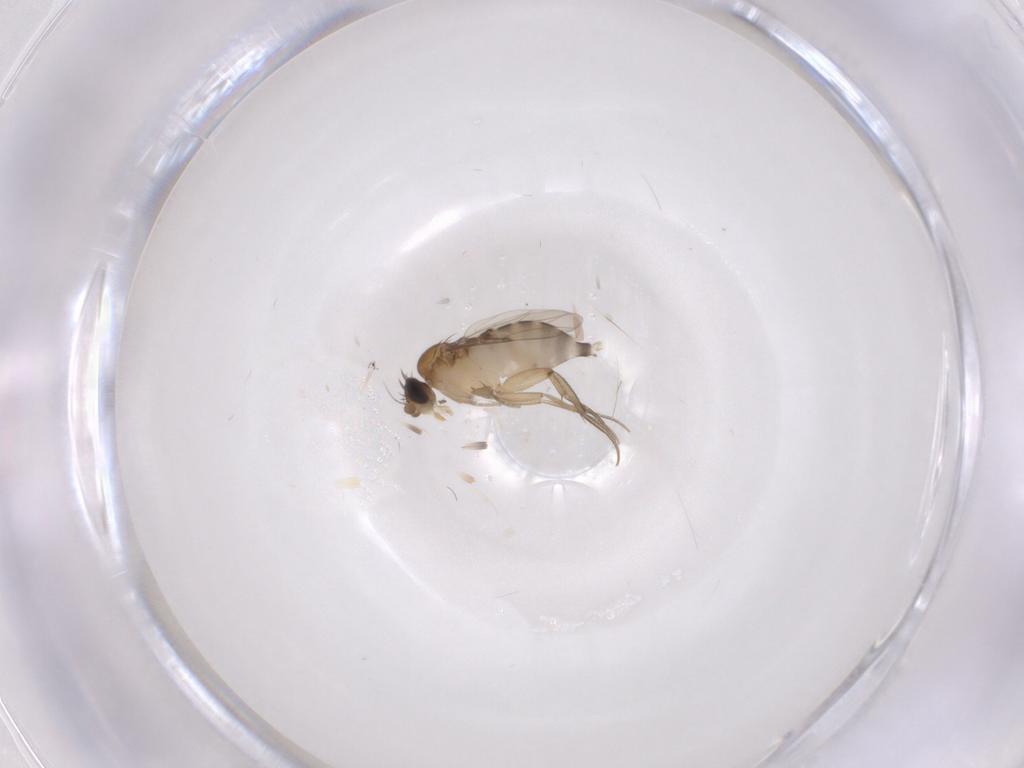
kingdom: Animalia
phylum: Arthropoda
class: Insecta
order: Diptera
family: Phoridae
